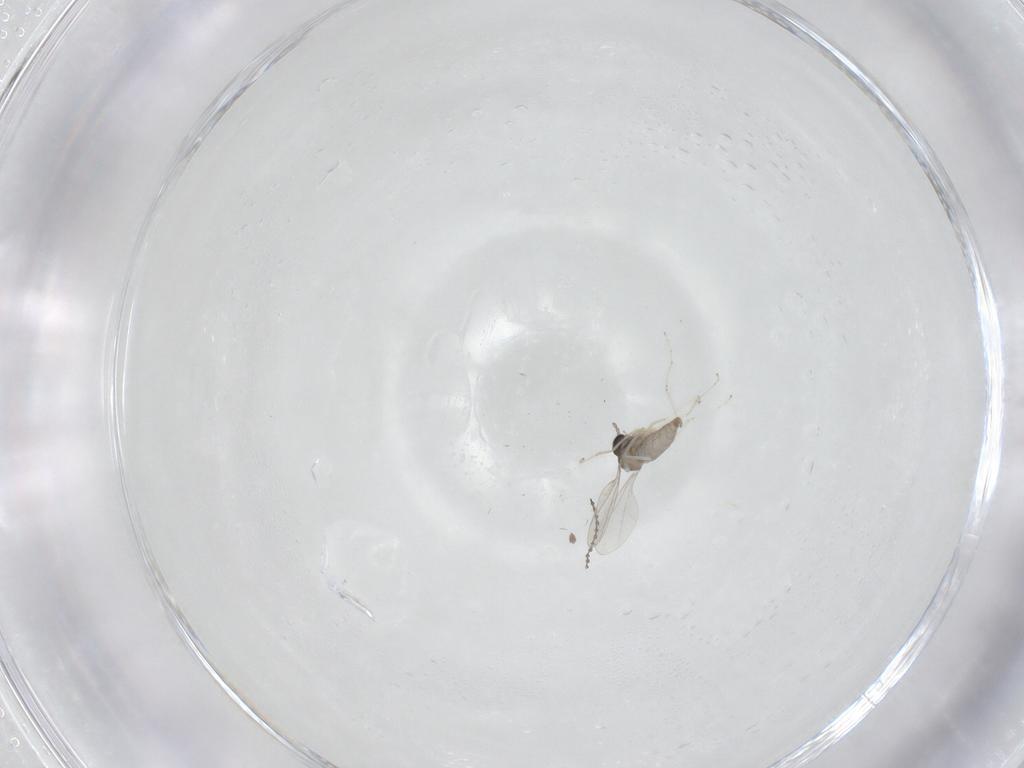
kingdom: Animalia
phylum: Arthropoda
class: Insecta
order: Diptera
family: Cecidomyiidae
